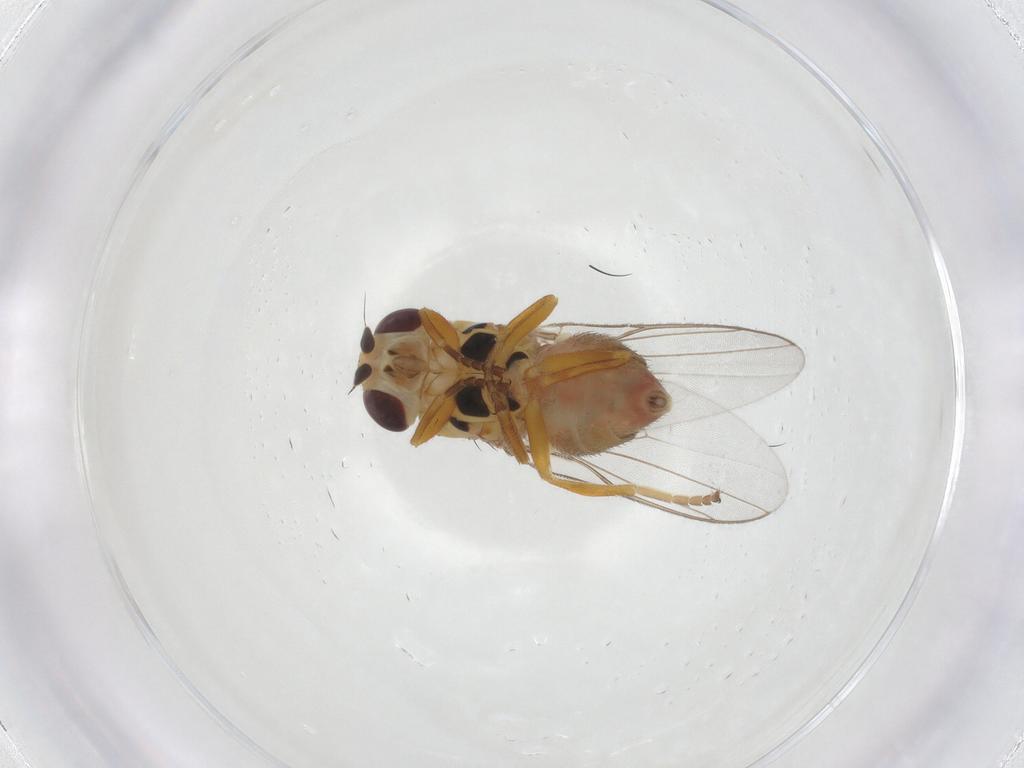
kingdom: Animalia
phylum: Arthropoda
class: Insecta
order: Diptera
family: Chloropidae
